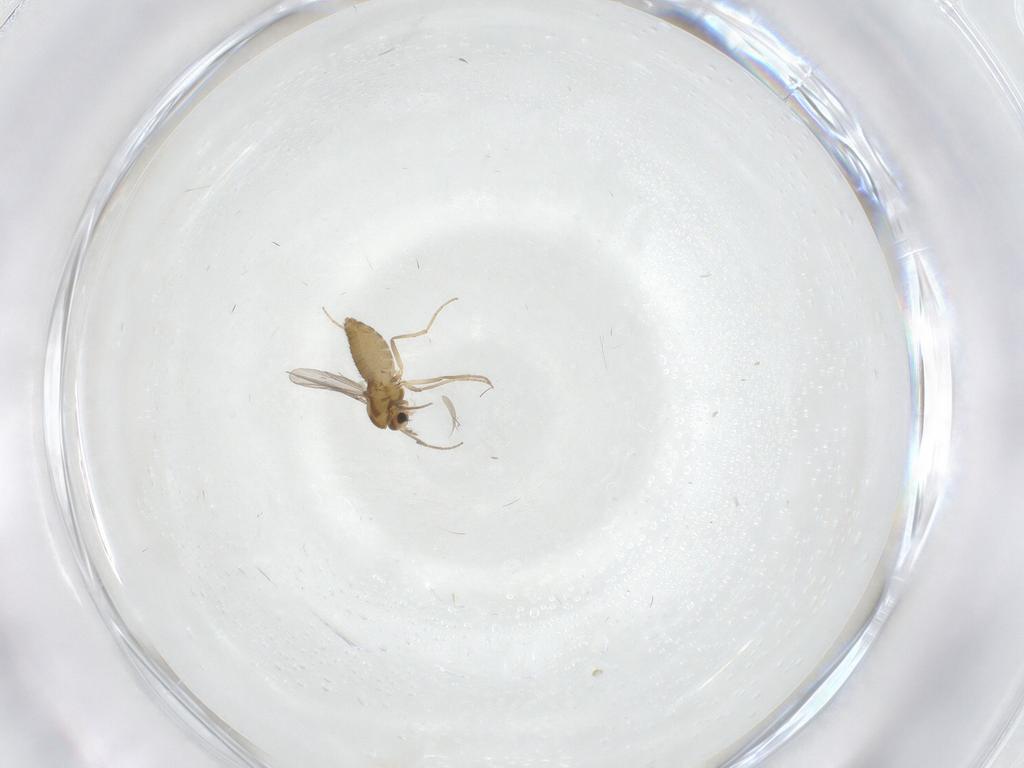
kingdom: Animalia
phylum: Arthropoda
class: Insecta
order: Diptera
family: Chironomidae
